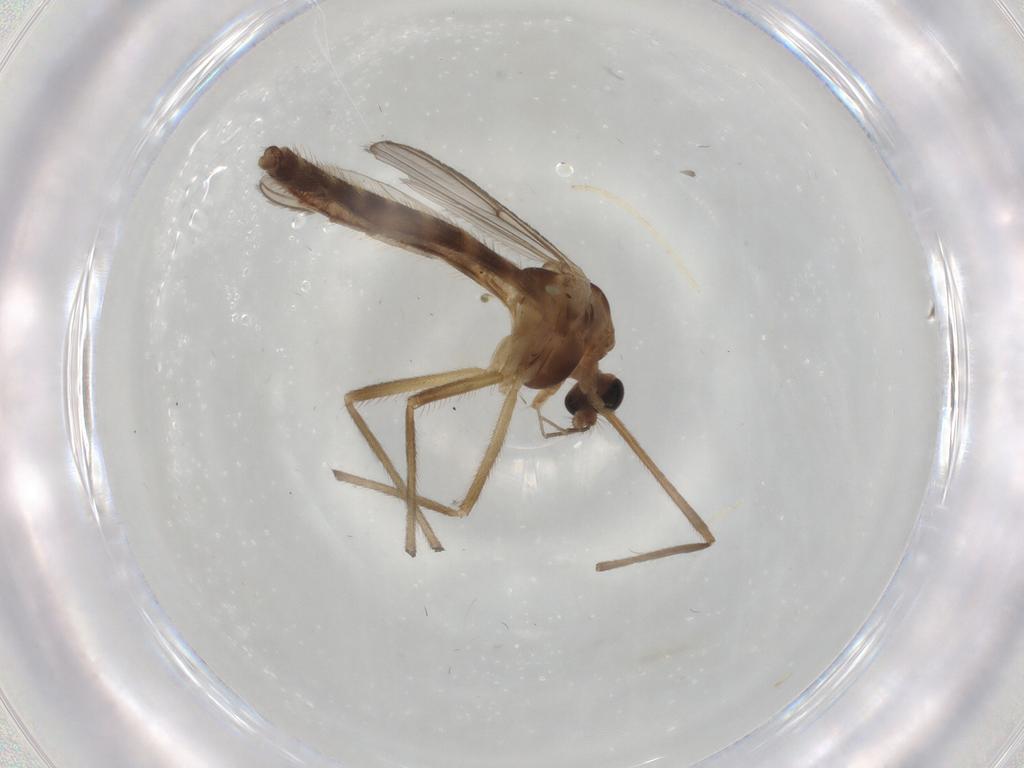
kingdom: Animalia
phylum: Arthropoda
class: Insecta
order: Diptera
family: Chironomidae
